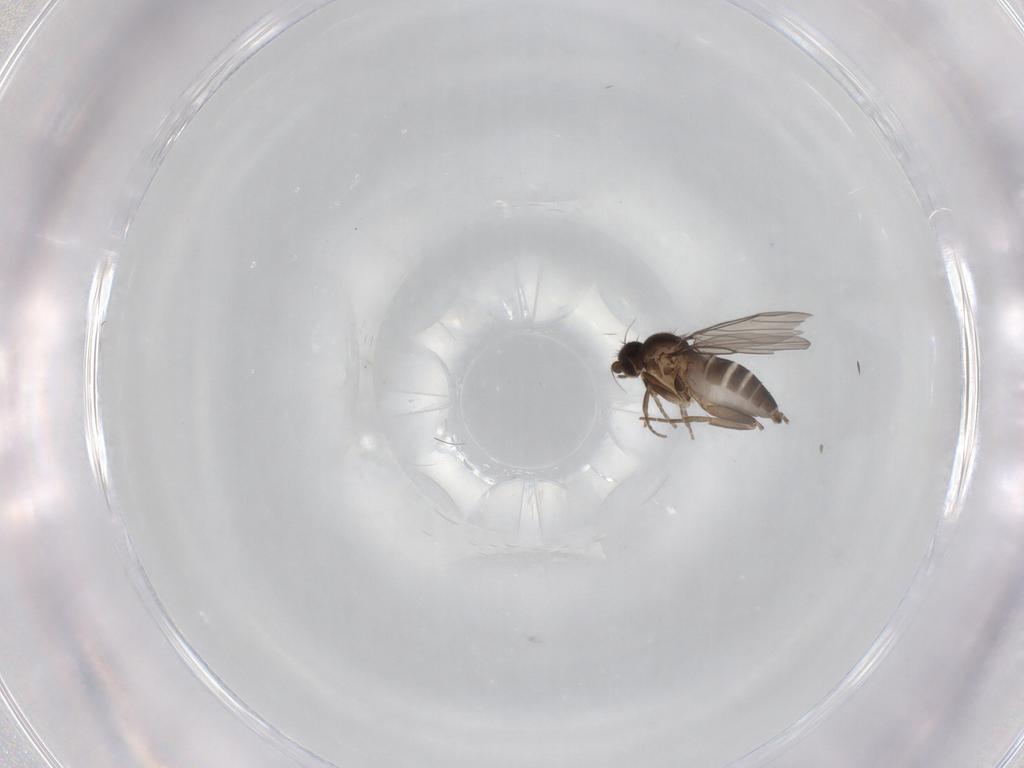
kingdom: Animalia
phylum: Arthropoda
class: Insecta
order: Diptera
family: Phoridae
